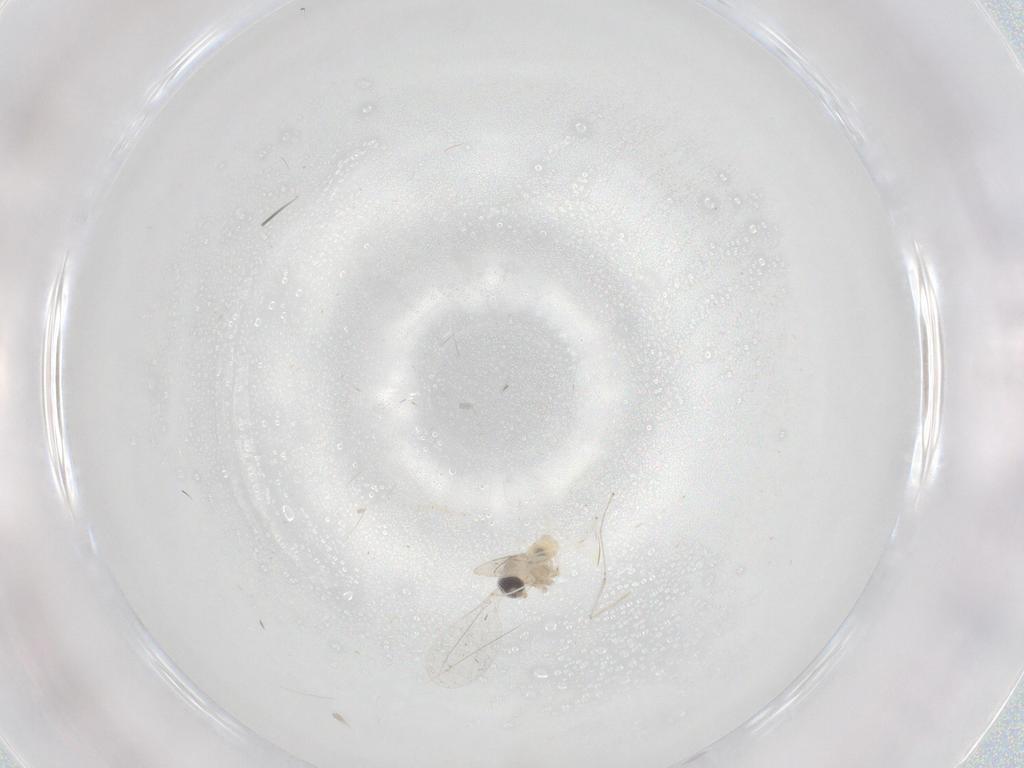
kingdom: Animalia
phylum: Arthropoda
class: Insecta
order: Diptera
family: Cecidomyiidae
